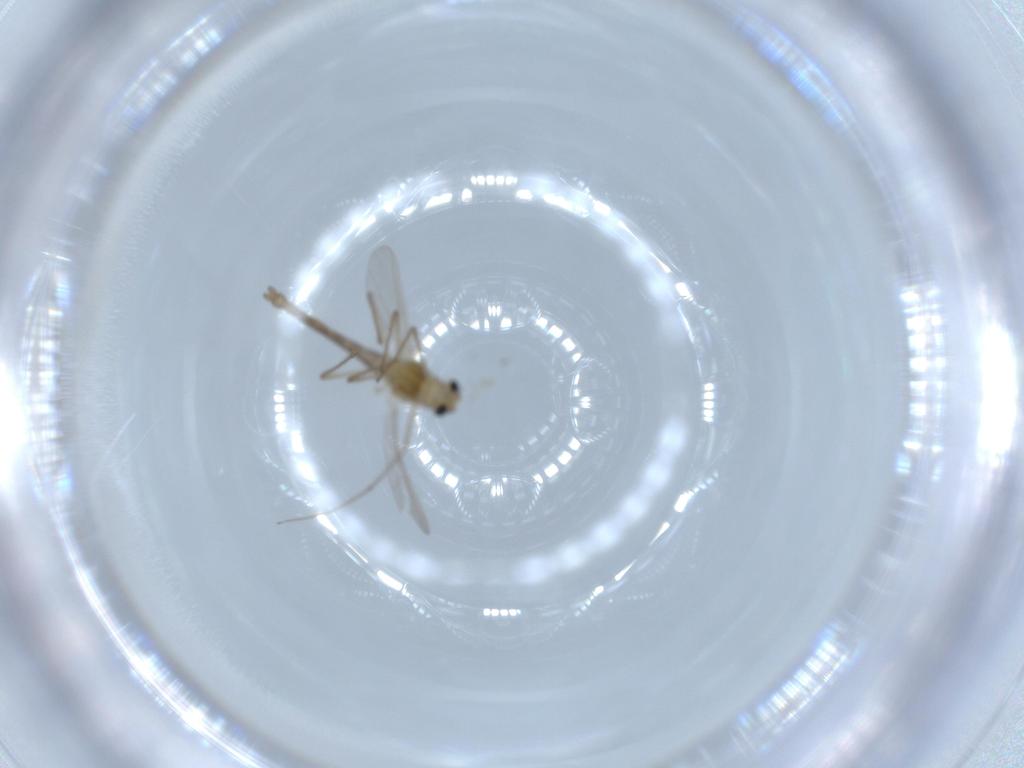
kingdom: Animalia
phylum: Arthropoda
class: Insecta
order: Diptera
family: Chironomidae
